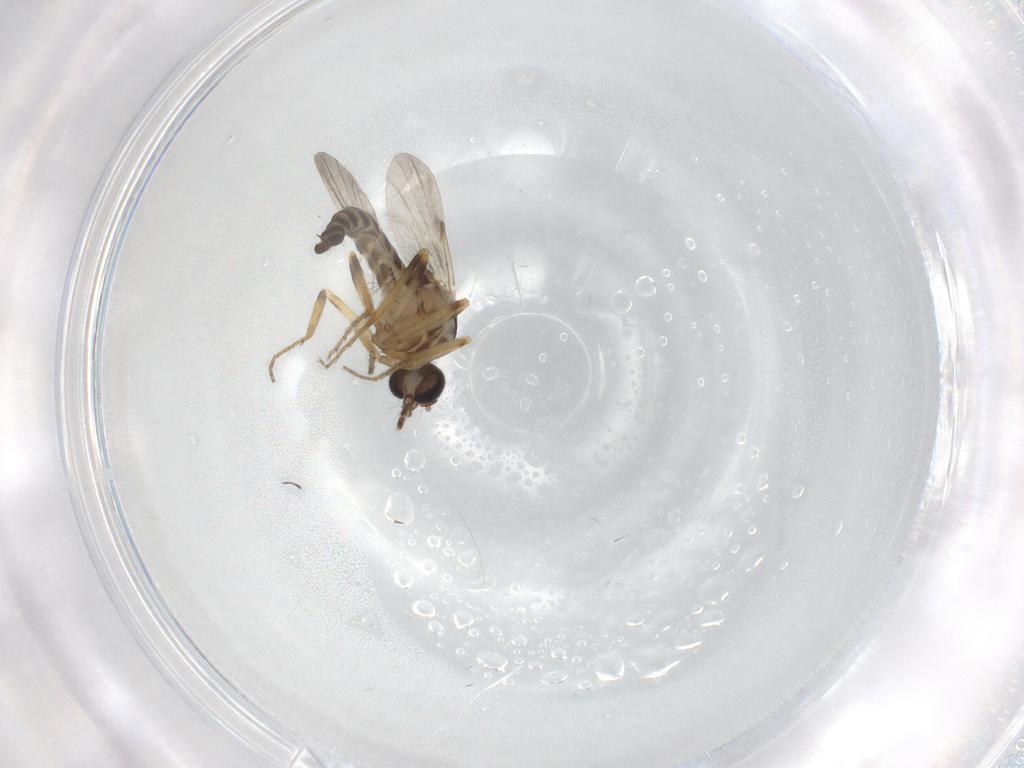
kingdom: Animalia
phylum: Arthropoda
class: Insecta
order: Diptera
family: Ceratopogonidae
